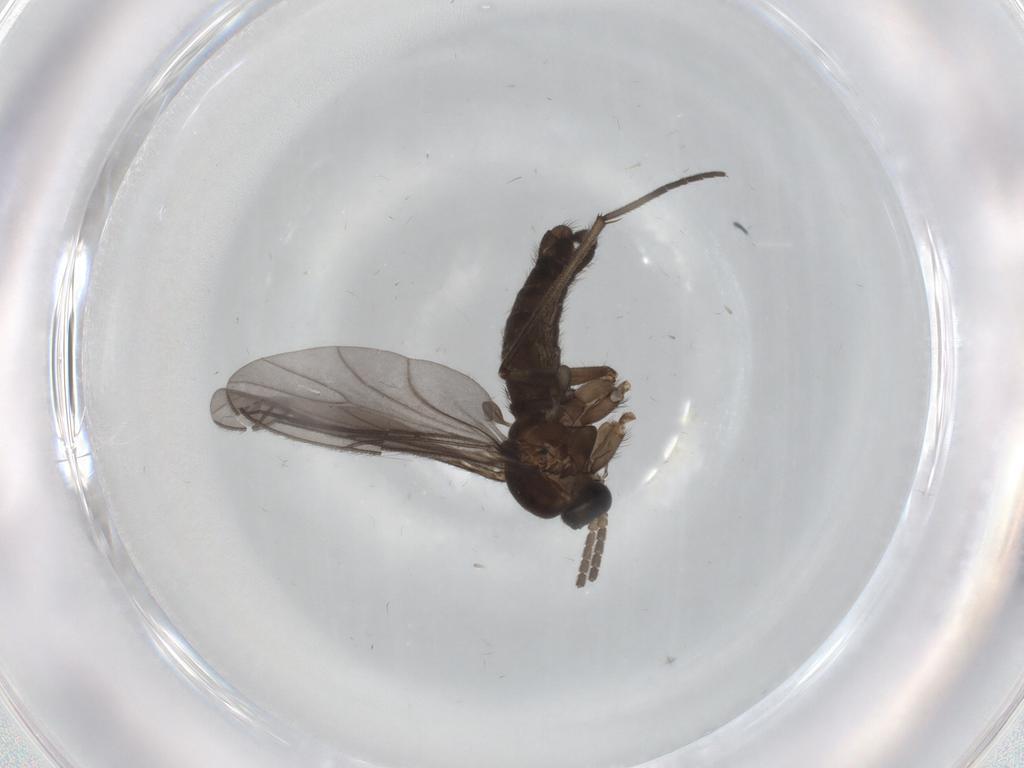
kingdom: Animalia
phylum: Arthropoda
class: Insecta
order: Diptera
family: Sciaridae
